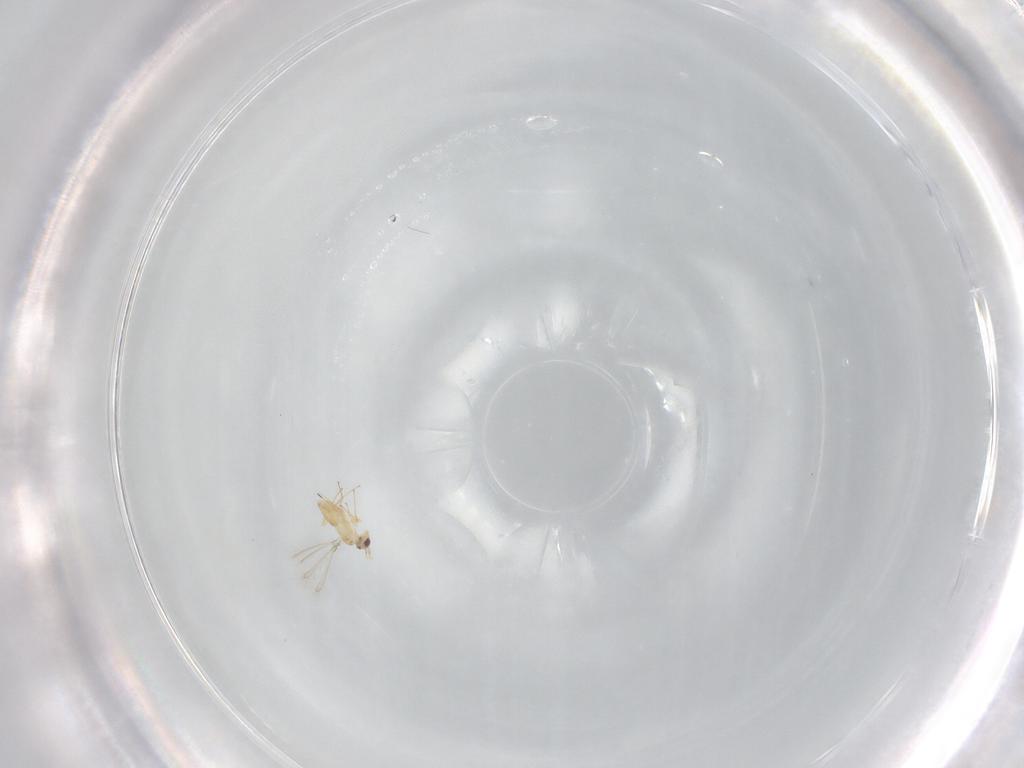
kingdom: Animalia
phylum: Arthropoda
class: Insecta
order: Hymenoptera
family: Mymaridae
